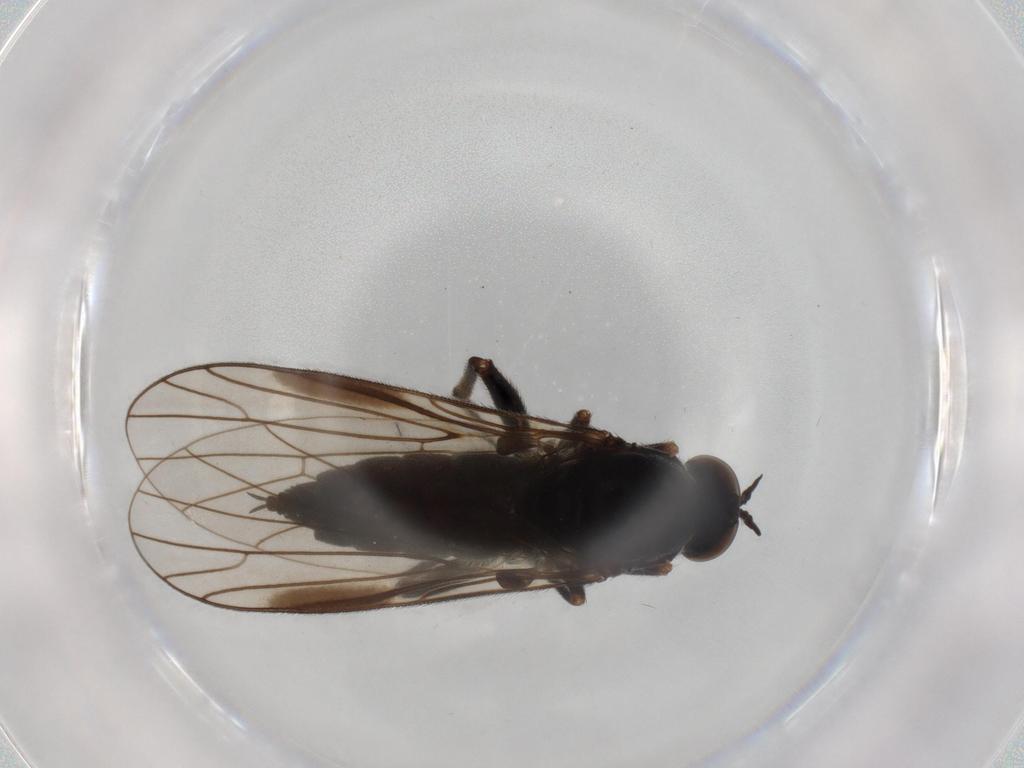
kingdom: Animalia
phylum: Arthropoda
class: Insecta
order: Diptera
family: Empididae
